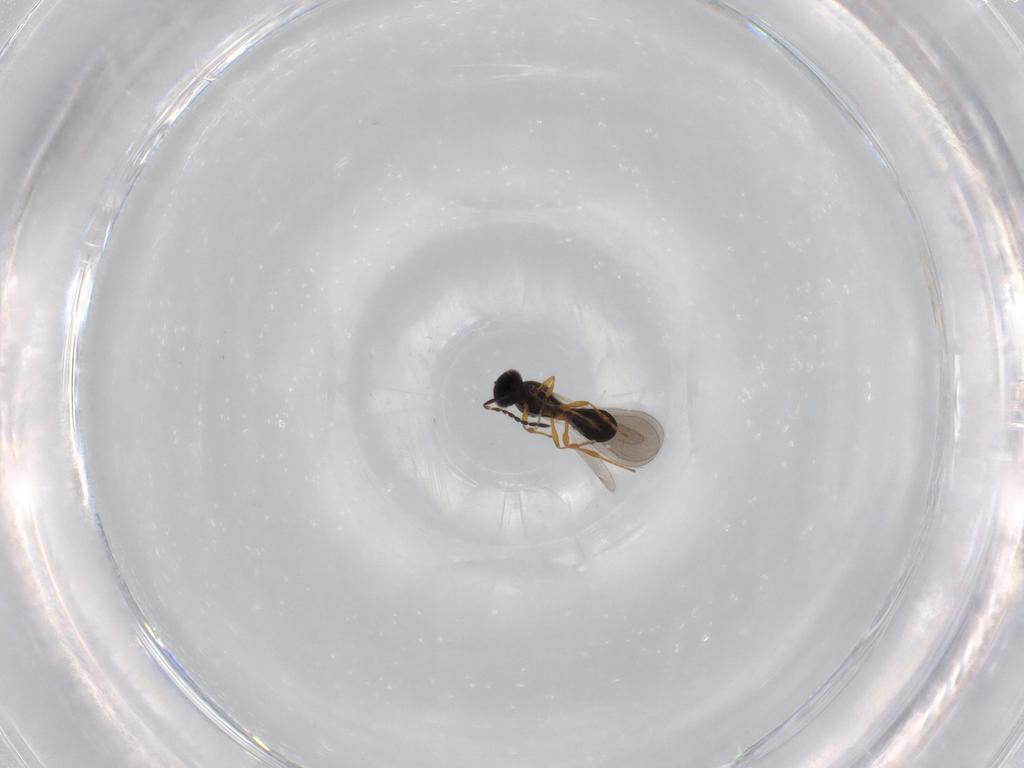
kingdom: Animalia
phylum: Arthropoda
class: Insecta
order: Hymenoptera
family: Platygastridae
